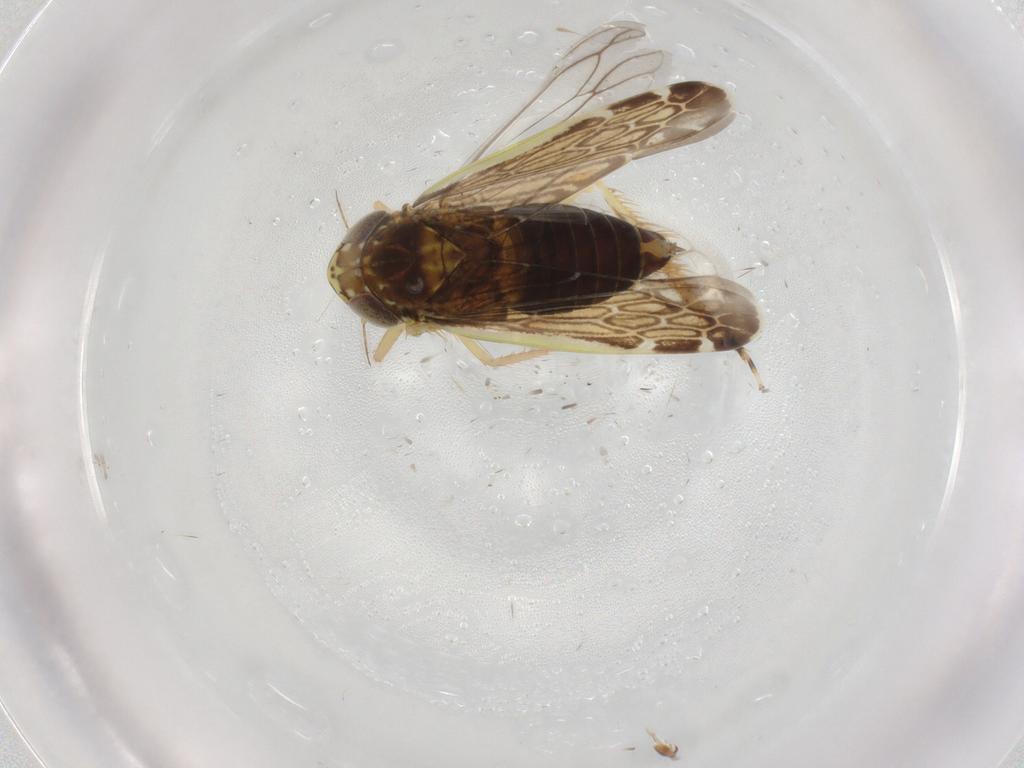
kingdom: Animalia
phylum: Arthropoda
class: Insecta
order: Hemiptera
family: Cicadellidae
